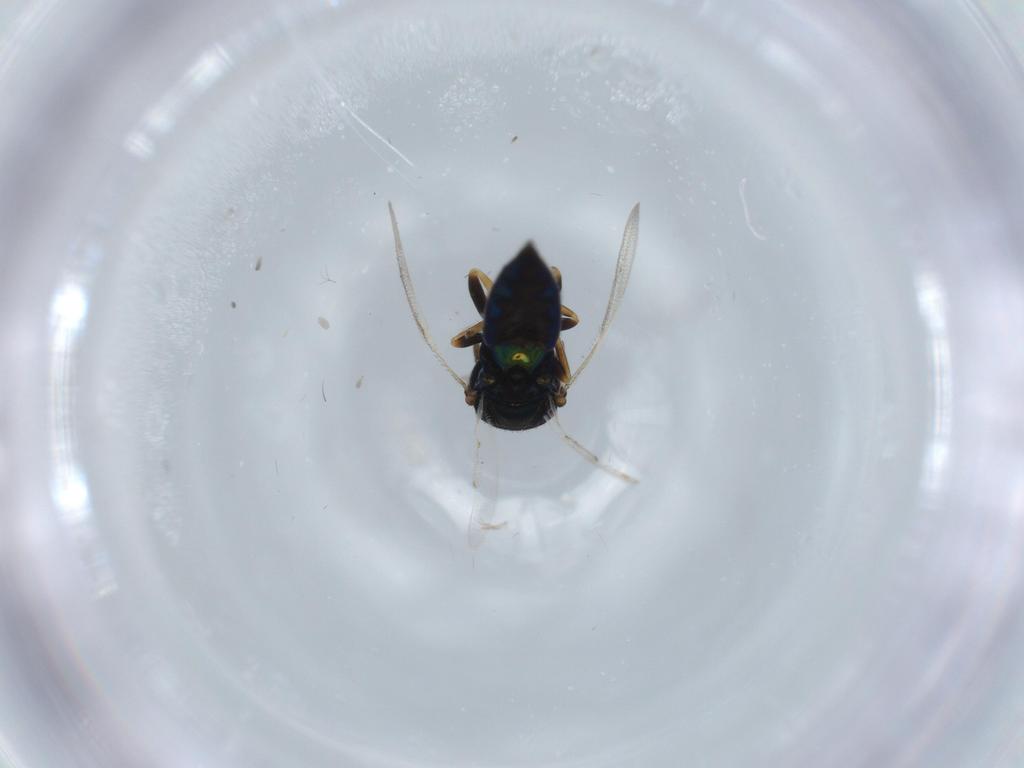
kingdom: Animalia
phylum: Arthropoda
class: Insecta
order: Hymenoptera
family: Pteromalidae
